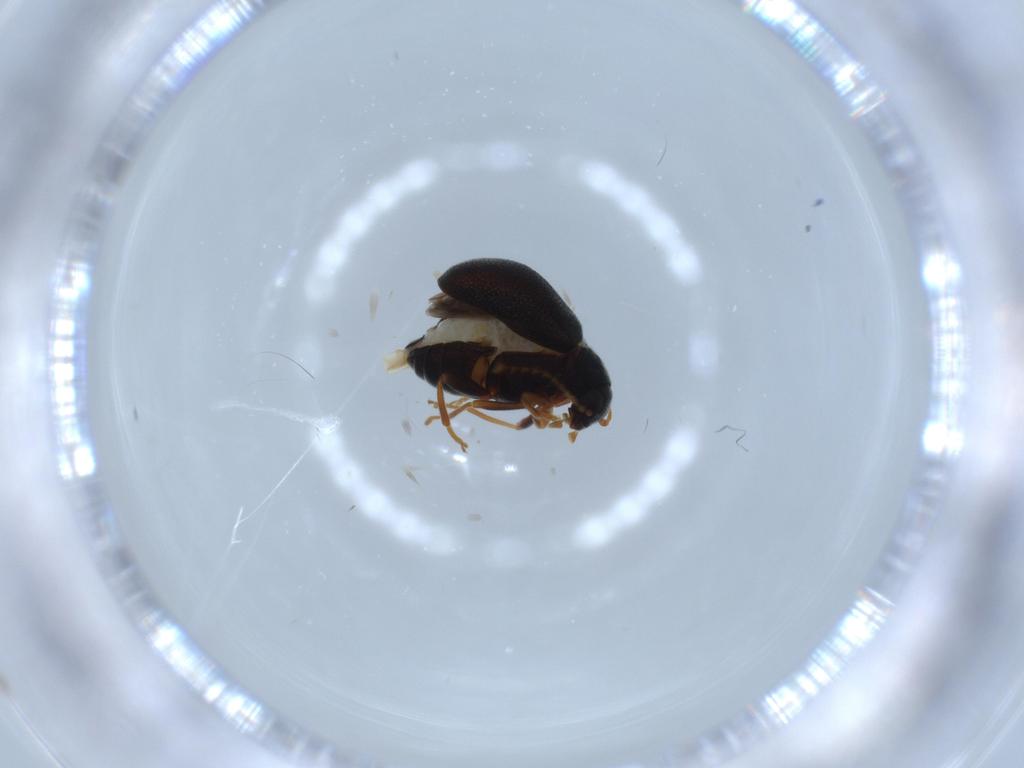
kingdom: Animalia
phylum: Arthropoda
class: Insecta
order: Coleoptera
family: Aderidae
